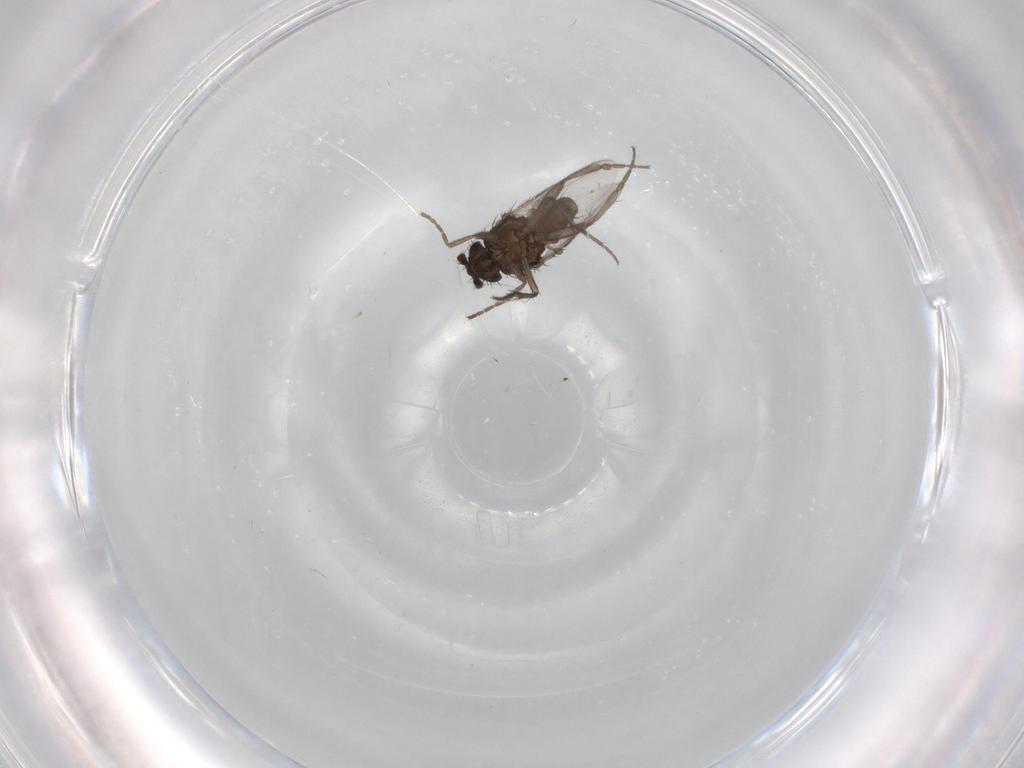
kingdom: Animalia
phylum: Arthropoda
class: Insecta
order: Diptera
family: Sphaeroceridae
